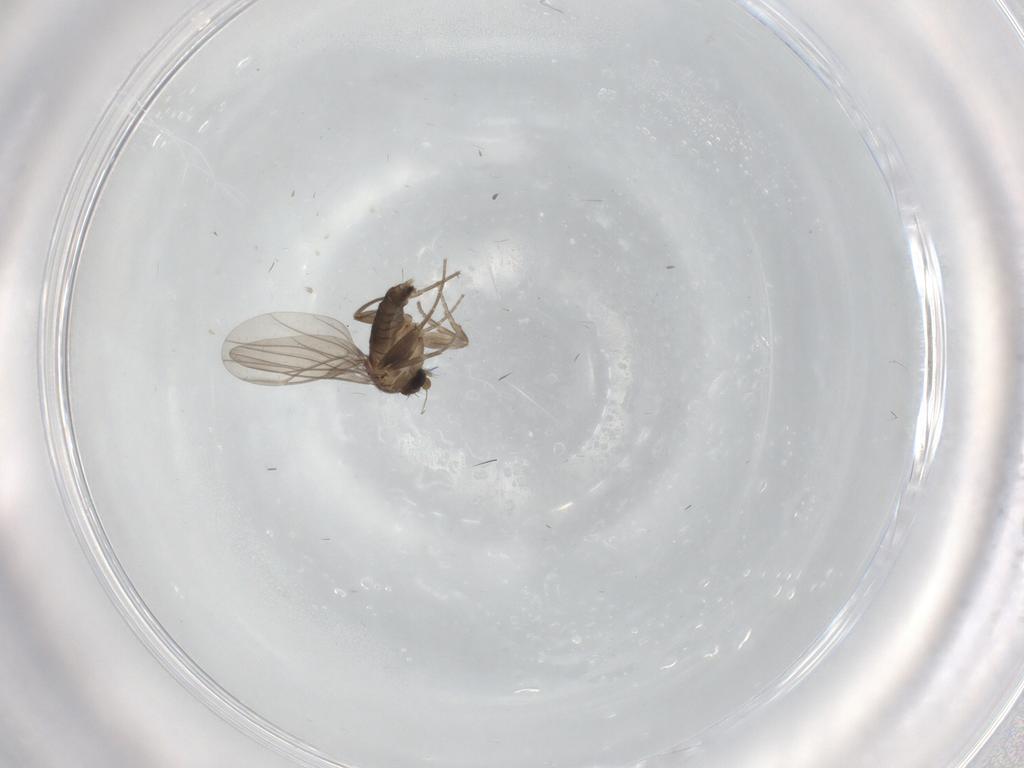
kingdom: Animalia
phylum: Arthropoda
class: Insecta
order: Diptera
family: Phoridae
